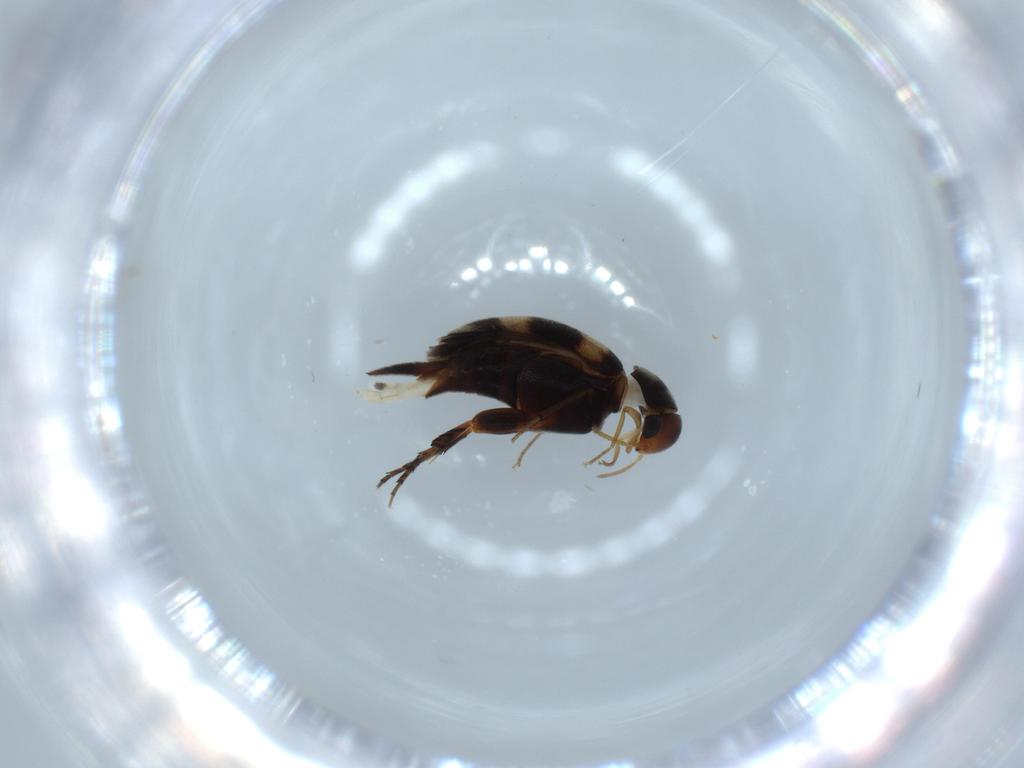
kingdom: Animalia
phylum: Arthropoda
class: Insecta
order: Coleoptera
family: Mordellidae
